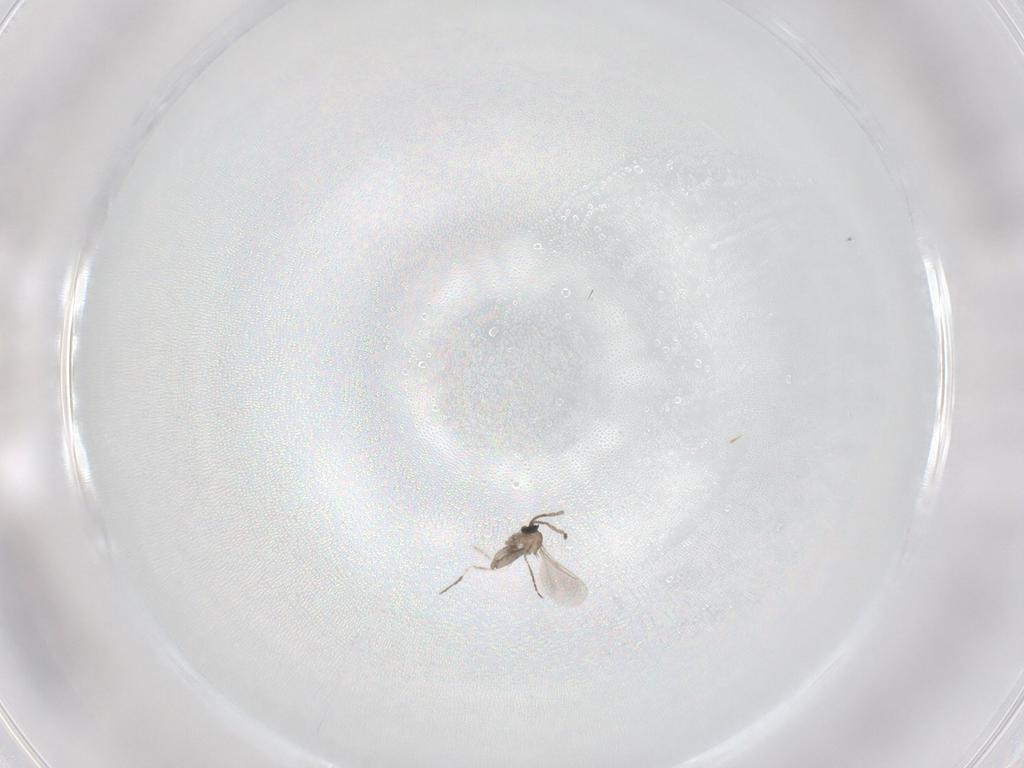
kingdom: Animalia
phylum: Arthropoda
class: Insecta
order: Diptera
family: Cecidomyiidae
